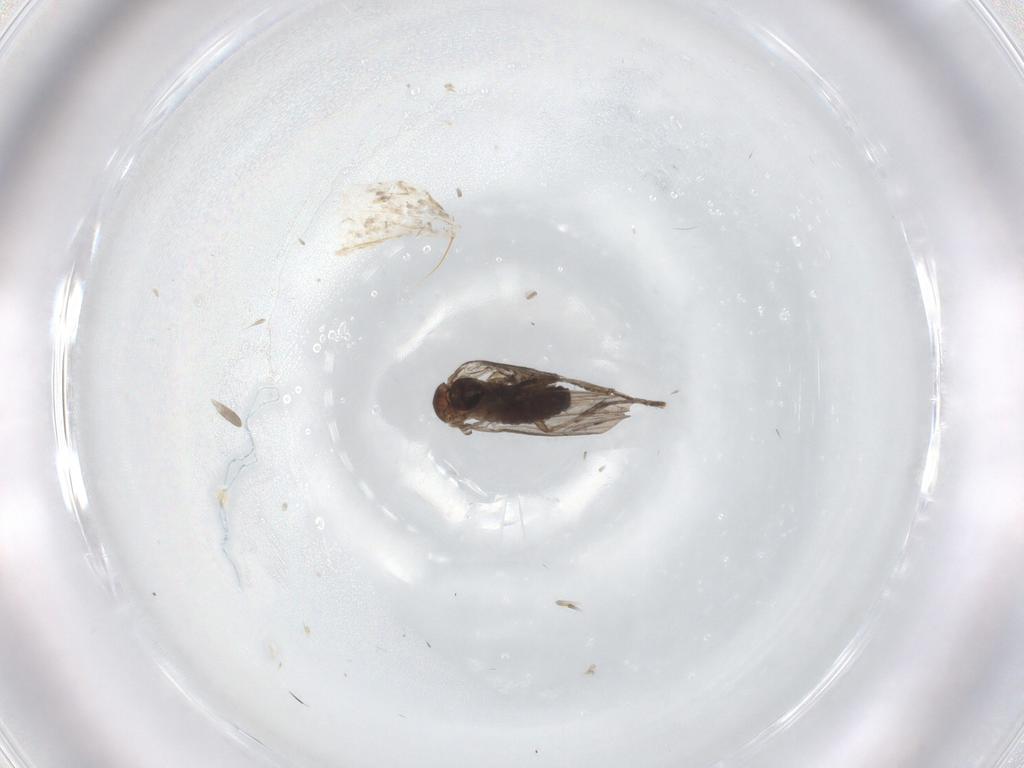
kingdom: Animalia
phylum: Arthropoda
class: Insecta
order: Diptera
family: Psychodidae
